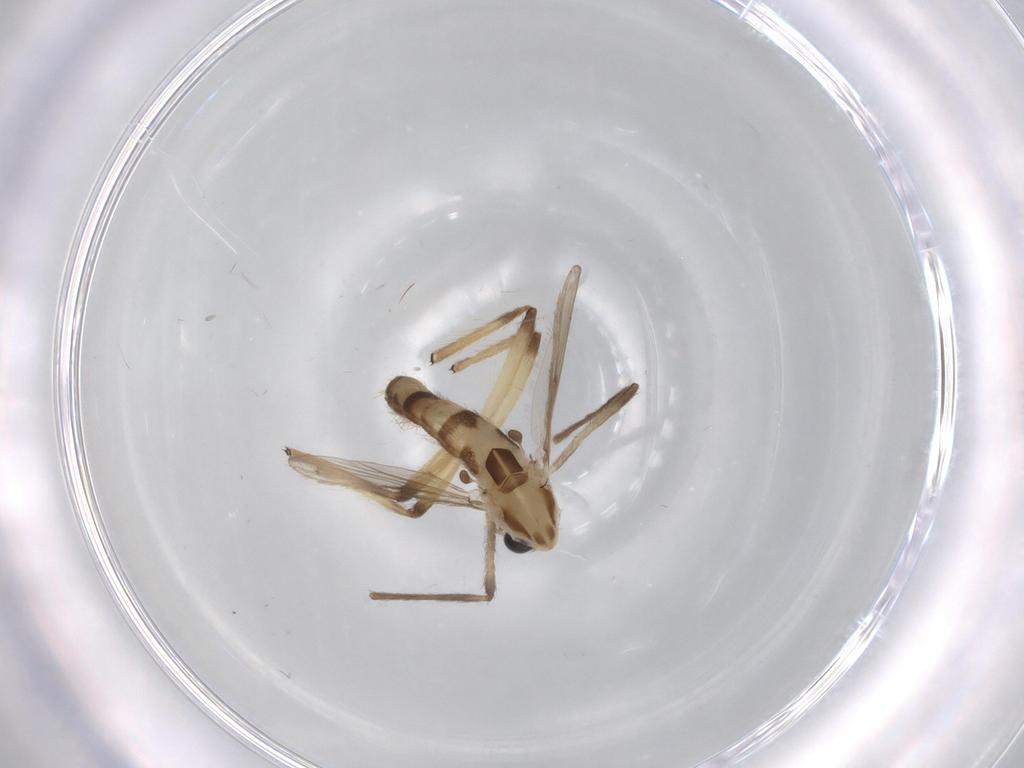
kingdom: Animalia
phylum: Arthropoda
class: Insecta
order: Diptera
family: Chironomidae
